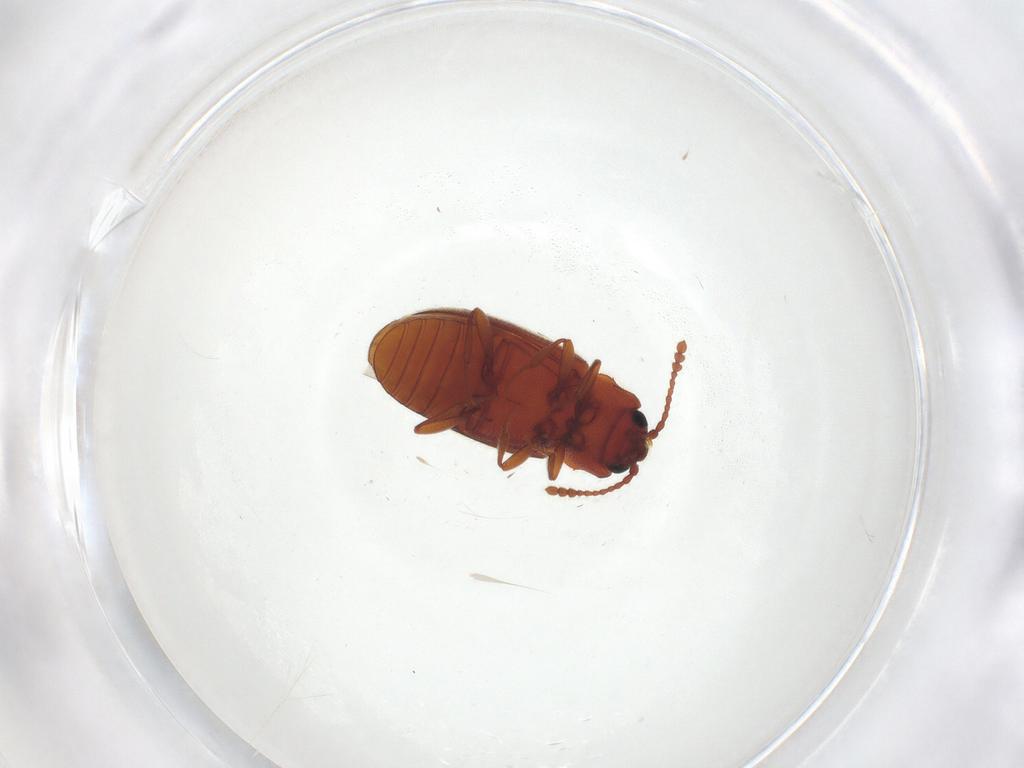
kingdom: Animalia
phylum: Arthropoda
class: Insecta
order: Coleoptera
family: Cryptophagidae
